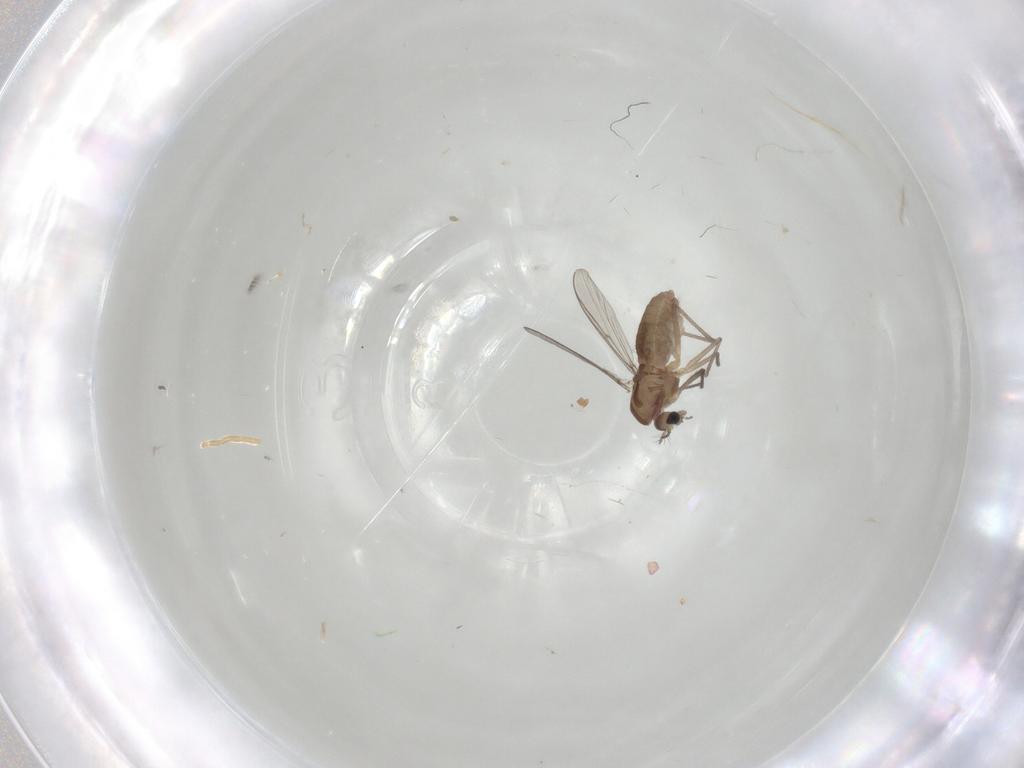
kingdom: Animalia
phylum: Arthropoda
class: Insecta
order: Diptera
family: Chironomidae
